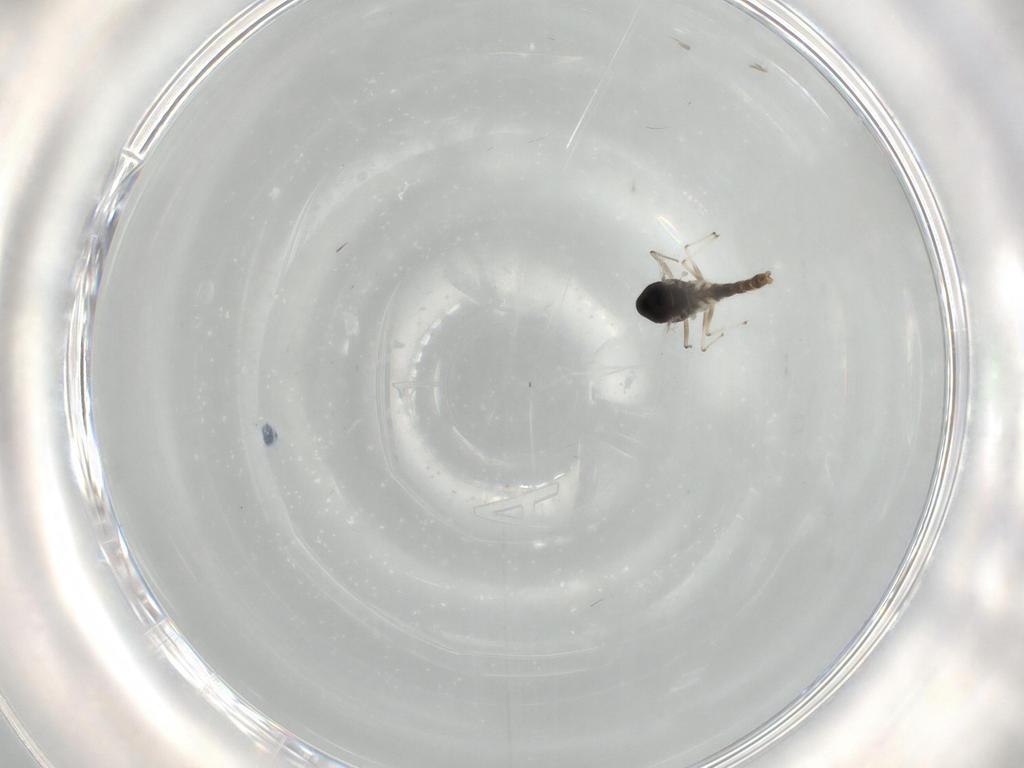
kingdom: Animalia
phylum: Arthropoda
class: Insecta
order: Diptera
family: Chironomidae
